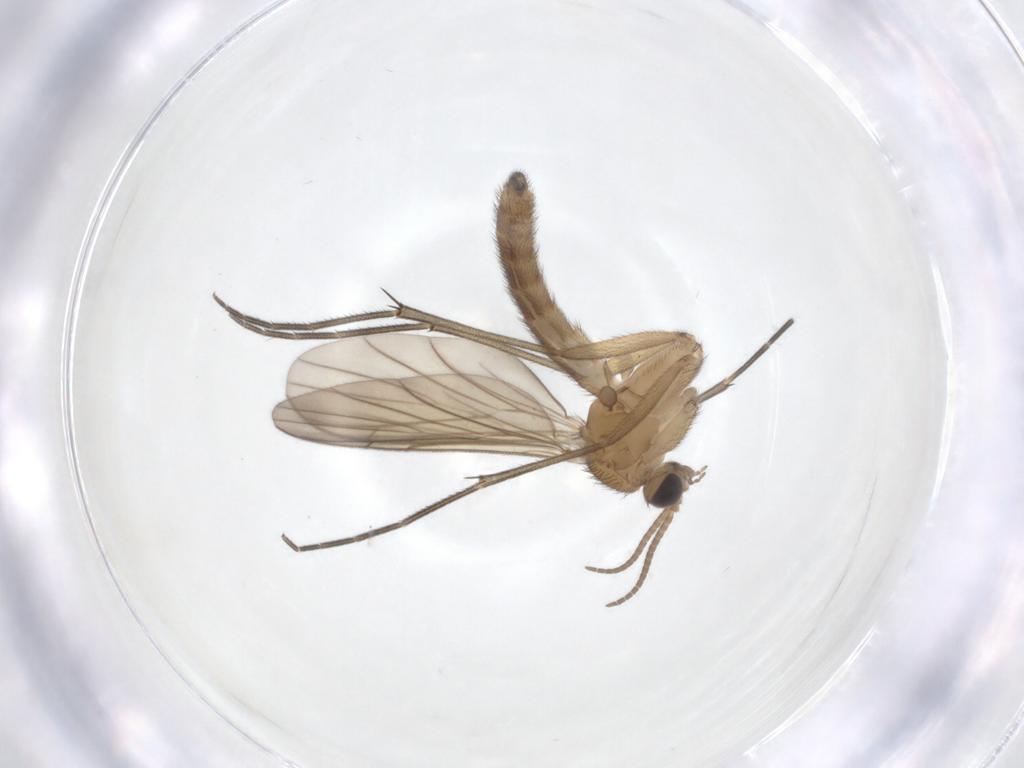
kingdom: Animalia
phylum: Arthropoda
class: Insecta
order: Diptera
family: Keroplatidae
